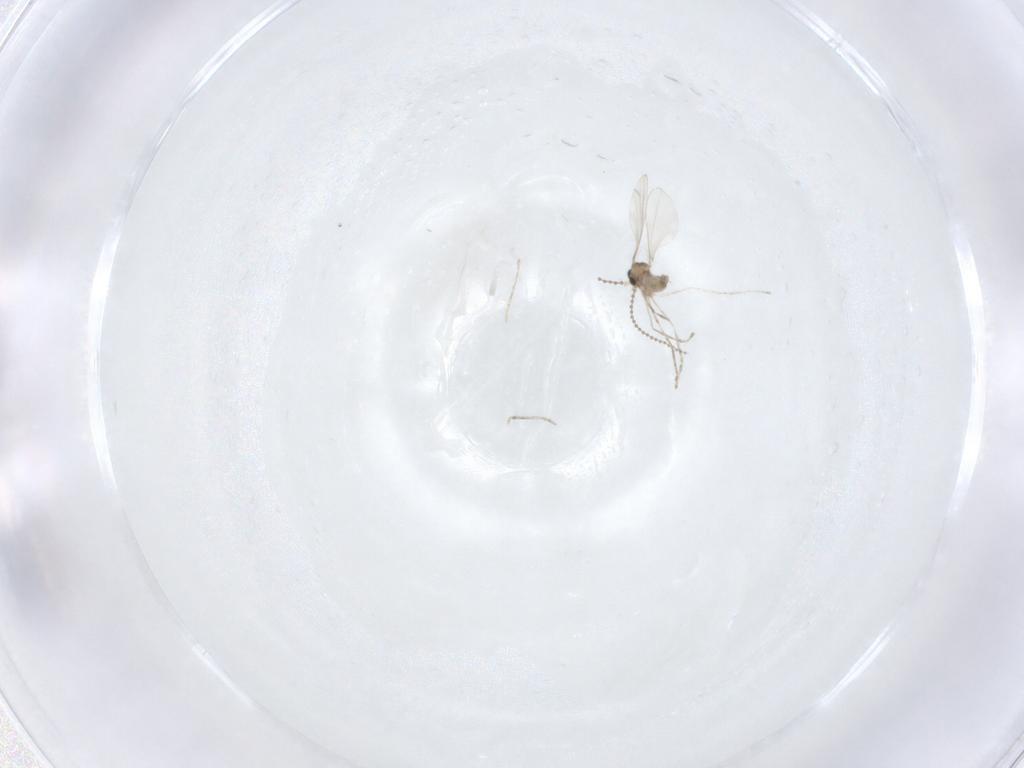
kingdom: Animalia
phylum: Arthropoda
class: Insecta
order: Diptera
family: Cecidomyiidae
